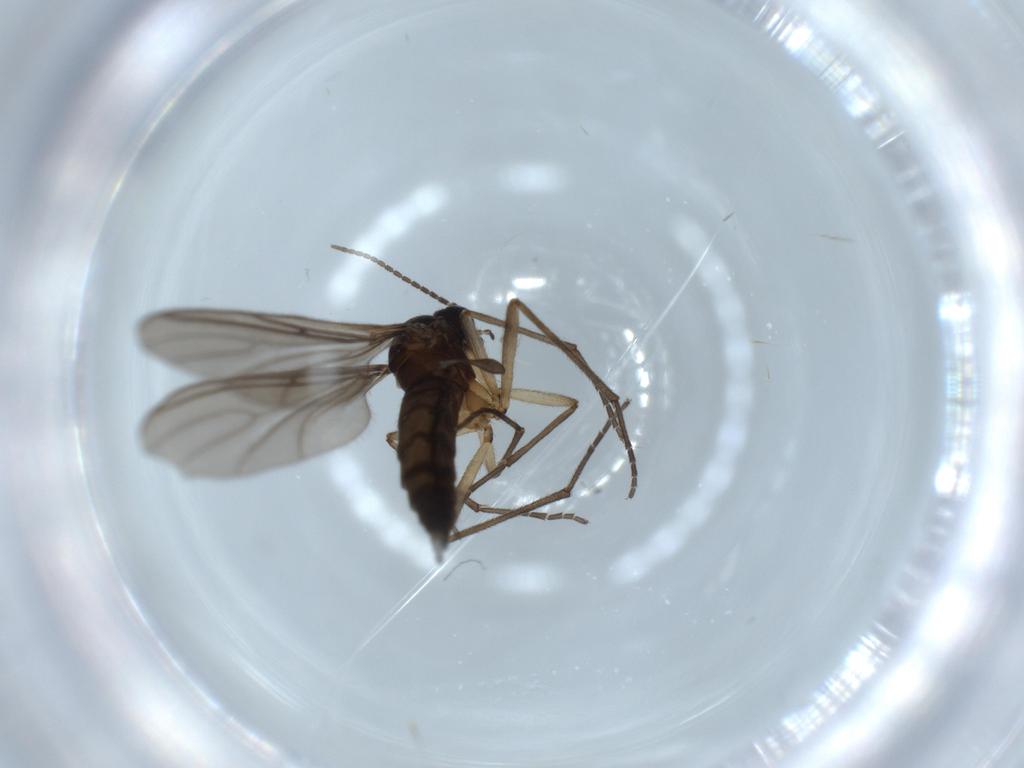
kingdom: Animalia
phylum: Arthropoda
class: Insecta
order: Diptera
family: Sciaridae
